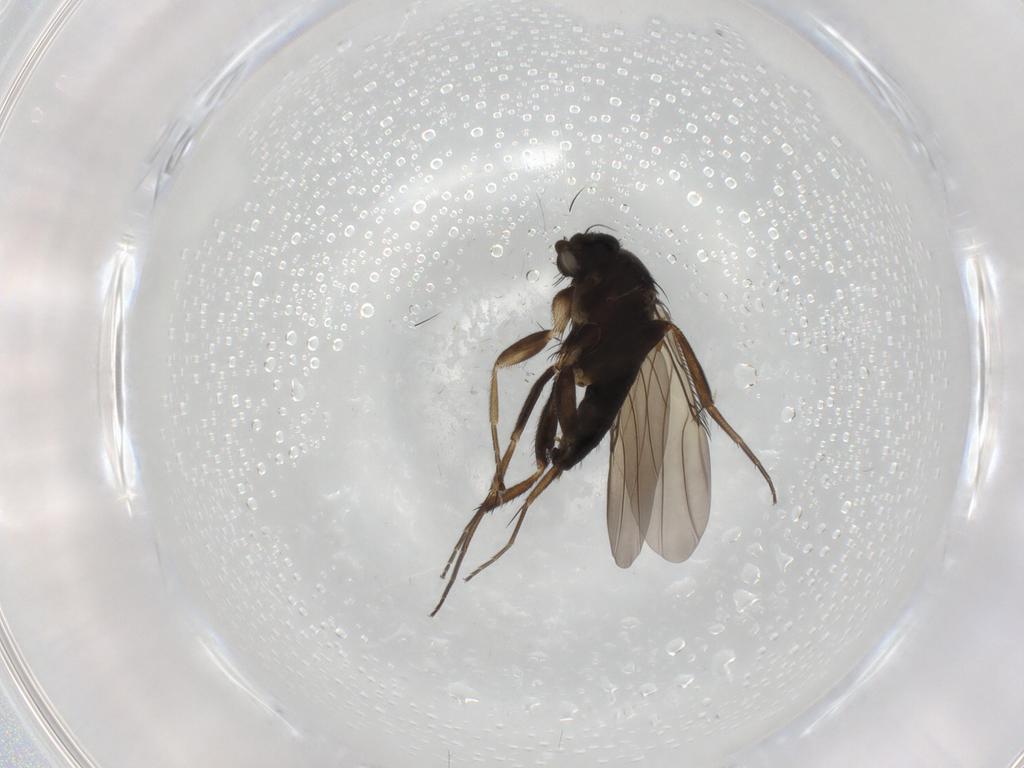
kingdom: Animalia
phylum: Arthropoda
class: Insecta
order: Diptera
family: Phoridae
